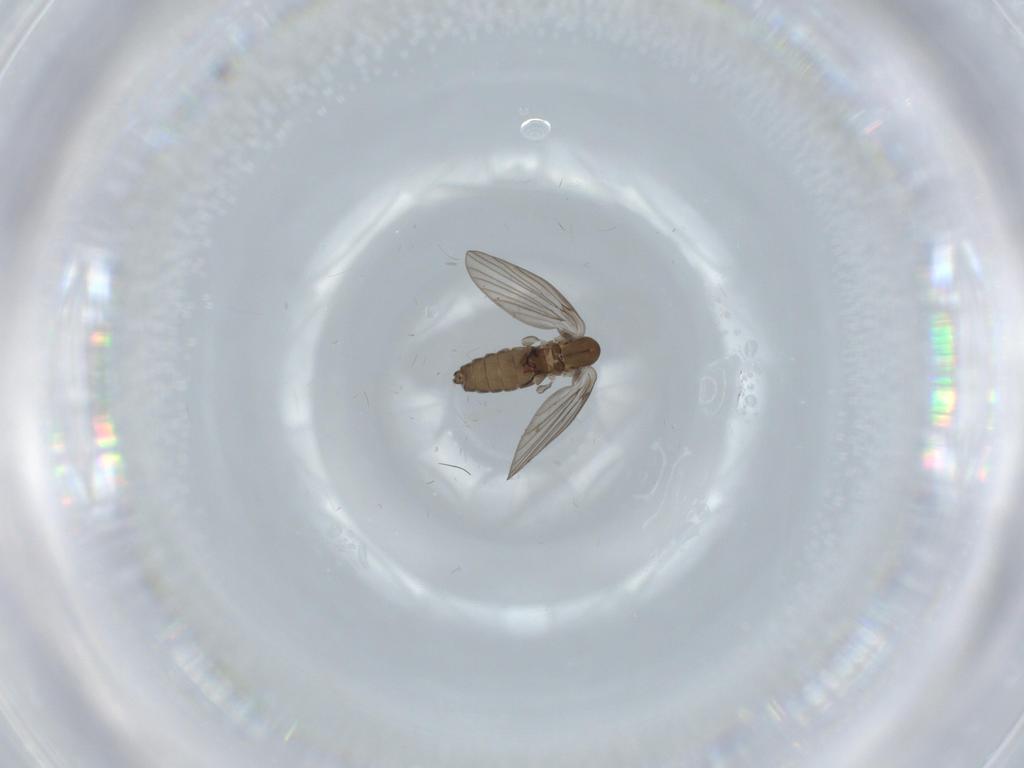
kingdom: Animalia
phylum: Arthropoda
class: Insecta
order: Diptera
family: Psychodidae
